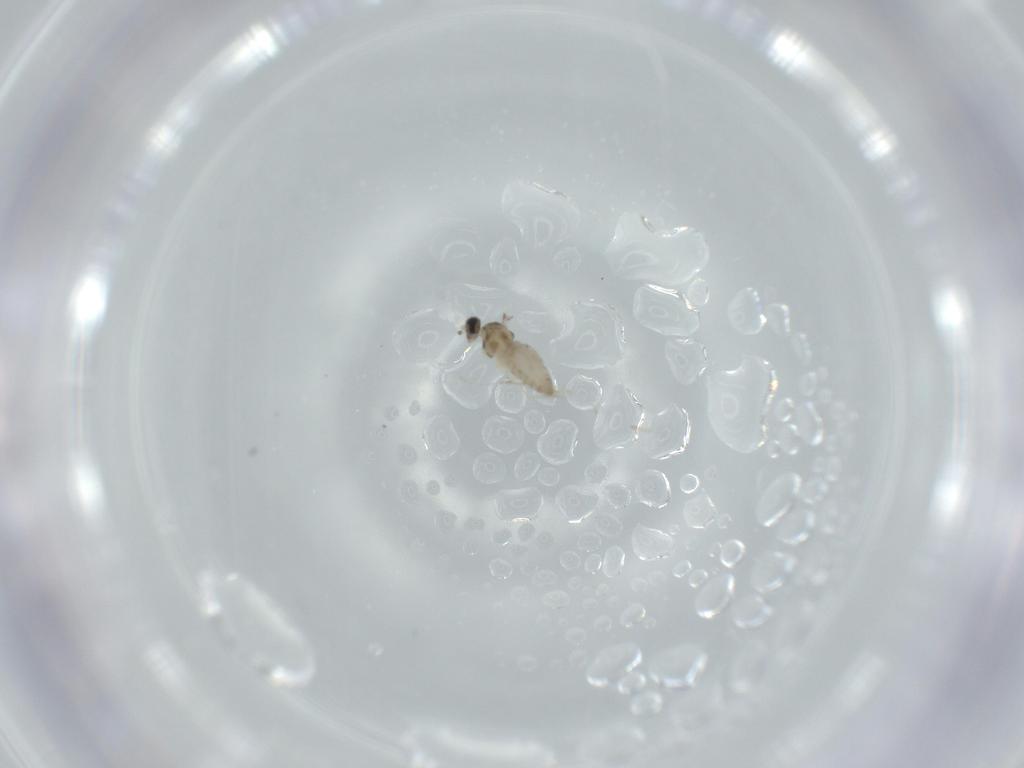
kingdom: Animalia
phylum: Arthropoda
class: Insecta
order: Diptera
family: Cecidomyiidae
